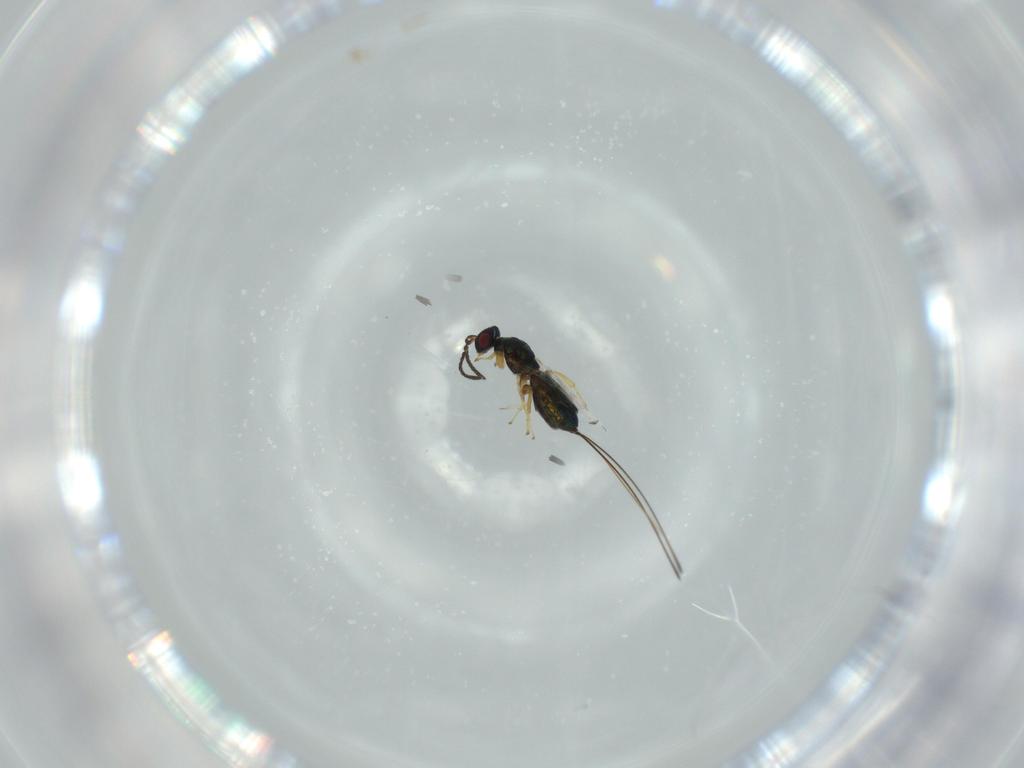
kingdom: Animalia
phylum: Arthropoda
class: Insecta
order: Hymenoptera
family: Agaonidae
